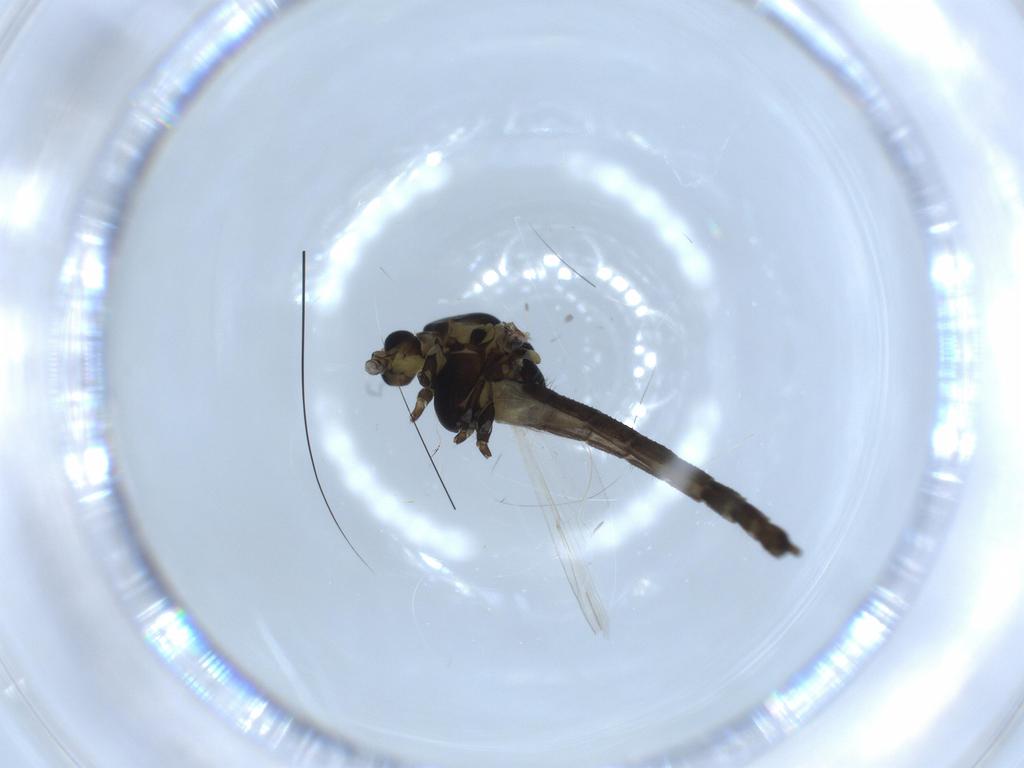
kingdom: Animalia
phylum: Arthropoda
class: Insecta
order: Diptera
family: Chironomidae
